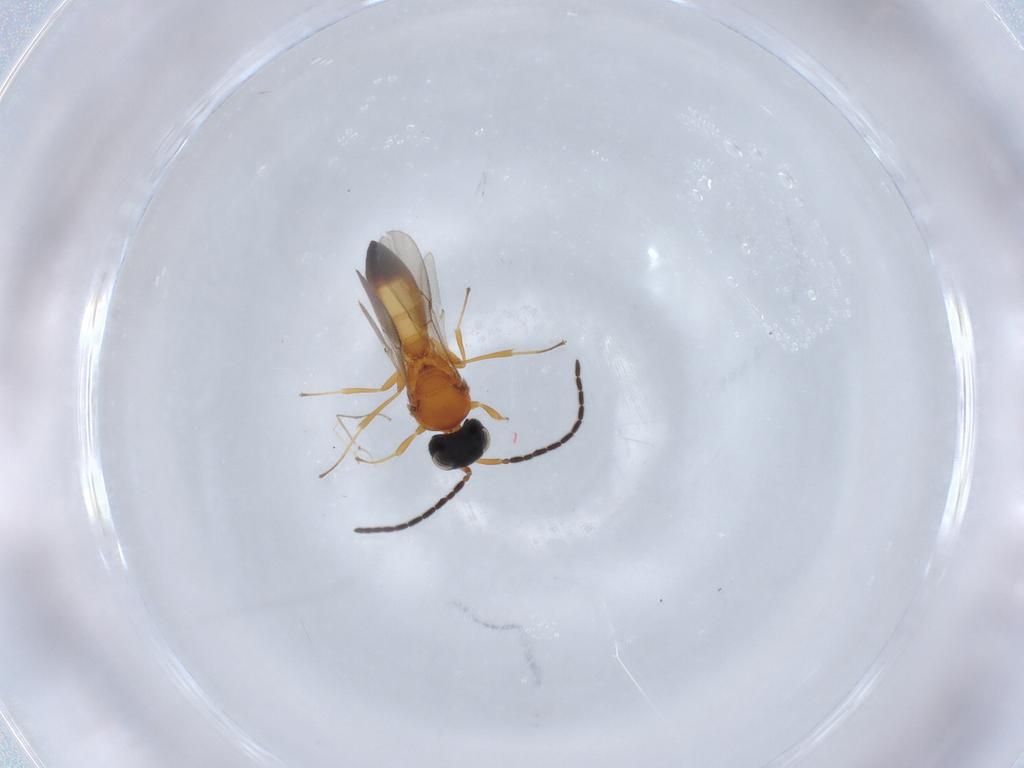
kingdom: Animalia
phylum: Arthropoda
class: Insecta
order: Hymenoptera
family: Scelionidae
